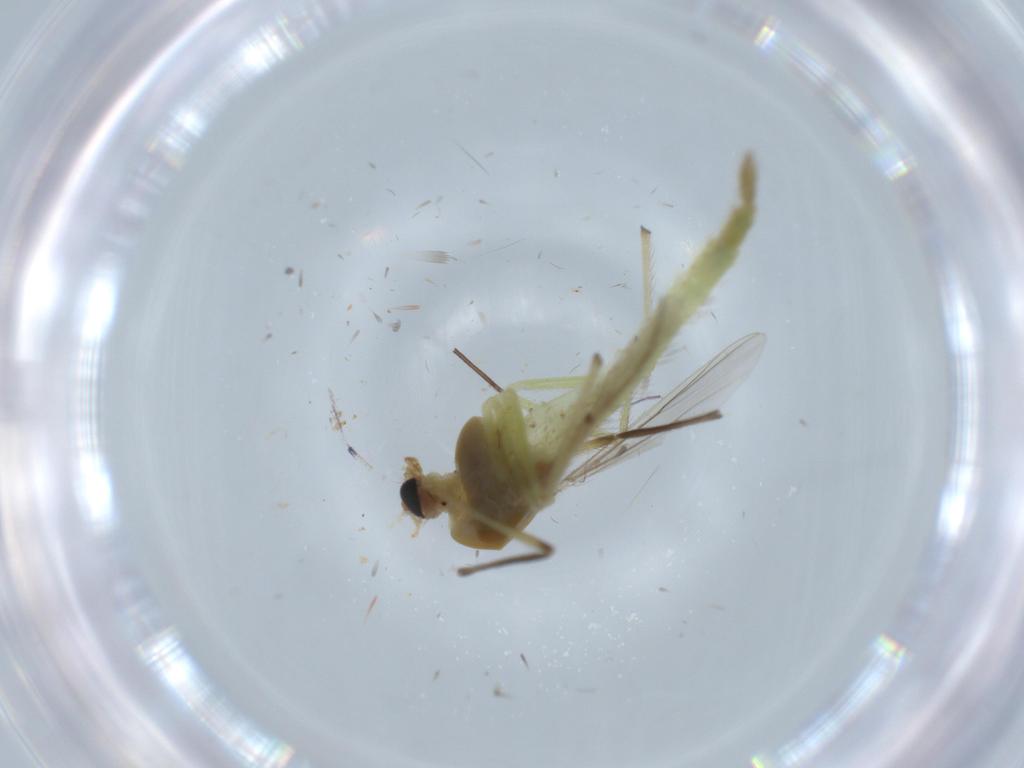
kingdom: Animalia
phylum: Arthropoda
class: Insecta
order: Diptera
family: Chironomidae
